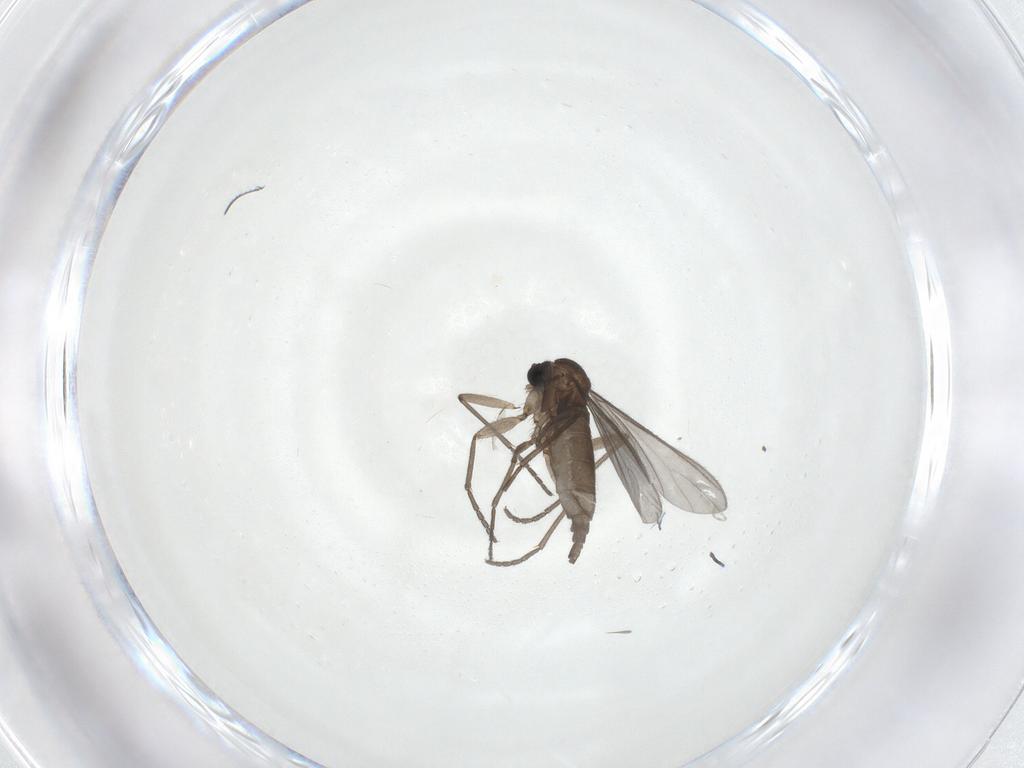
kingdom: Animalia
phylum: Arthropoda
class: Insecta
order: Diptera
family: Sciaridae
